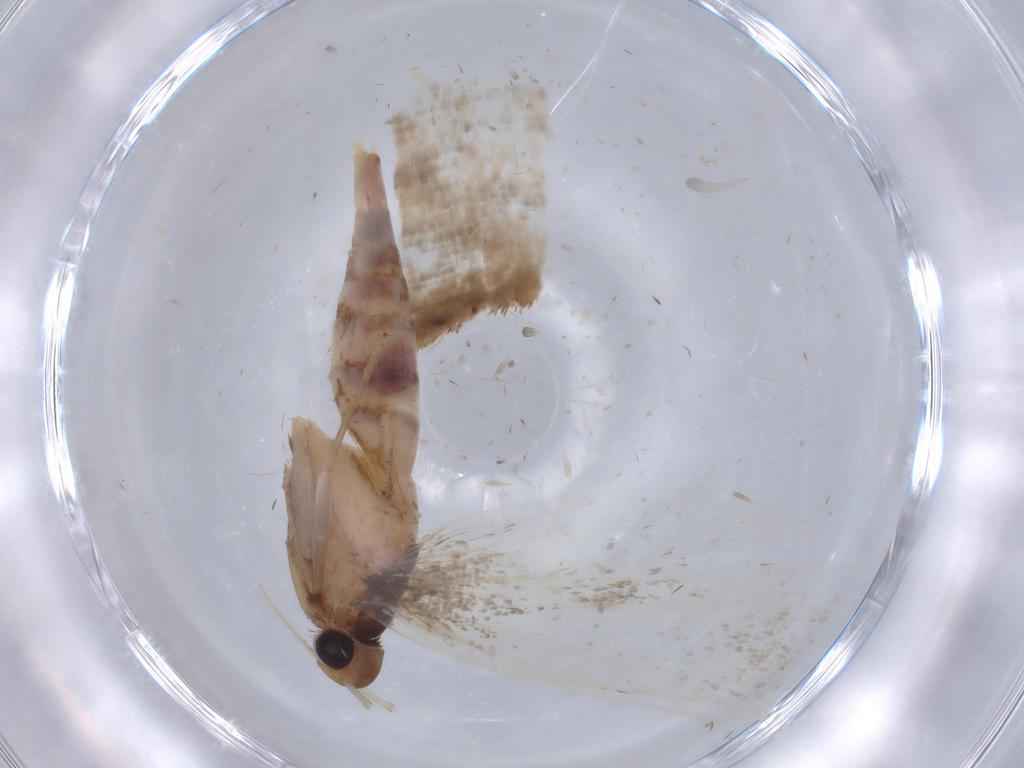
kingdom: Animalia
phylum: Arthropoda
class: Insecta
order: Lepidoptera
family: Gelechiidae
